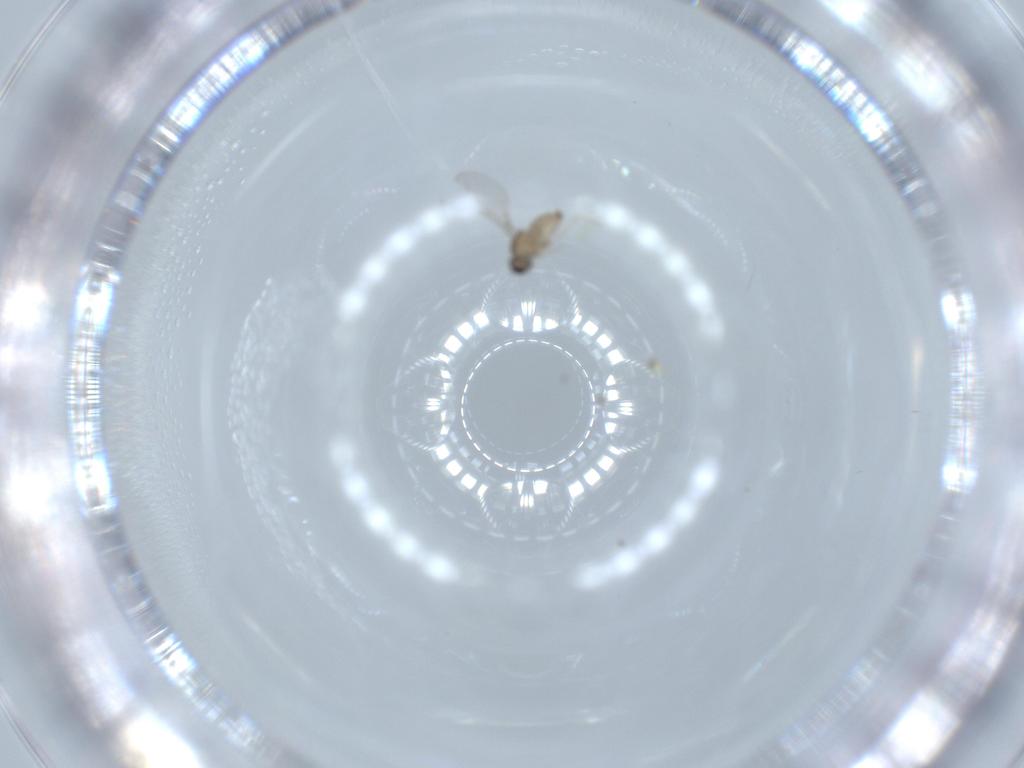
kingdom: Animalia
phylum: Arthropoda
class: Insecta
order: Diptera
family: Cecidomyiidae
